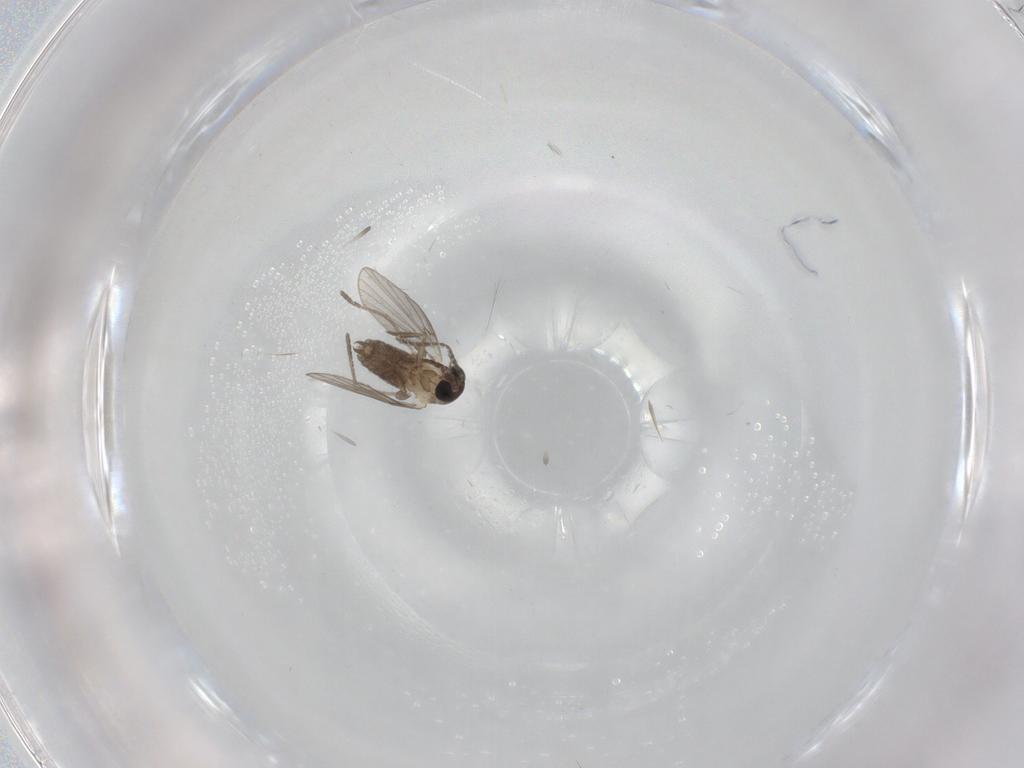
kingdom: Animalia
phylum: Arthropoda
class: Insecta
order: Diptera
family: Psychodidae
